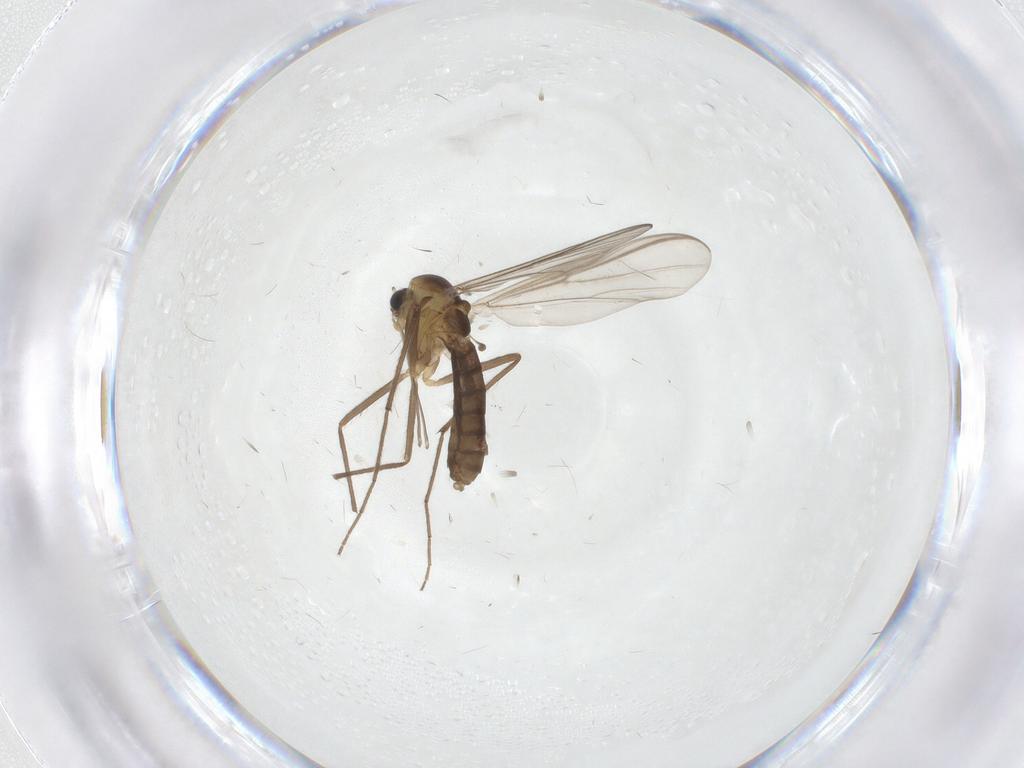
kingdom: Animalia
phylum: Arthropoda
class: Insecta
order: Diptera
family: Chironomidae
